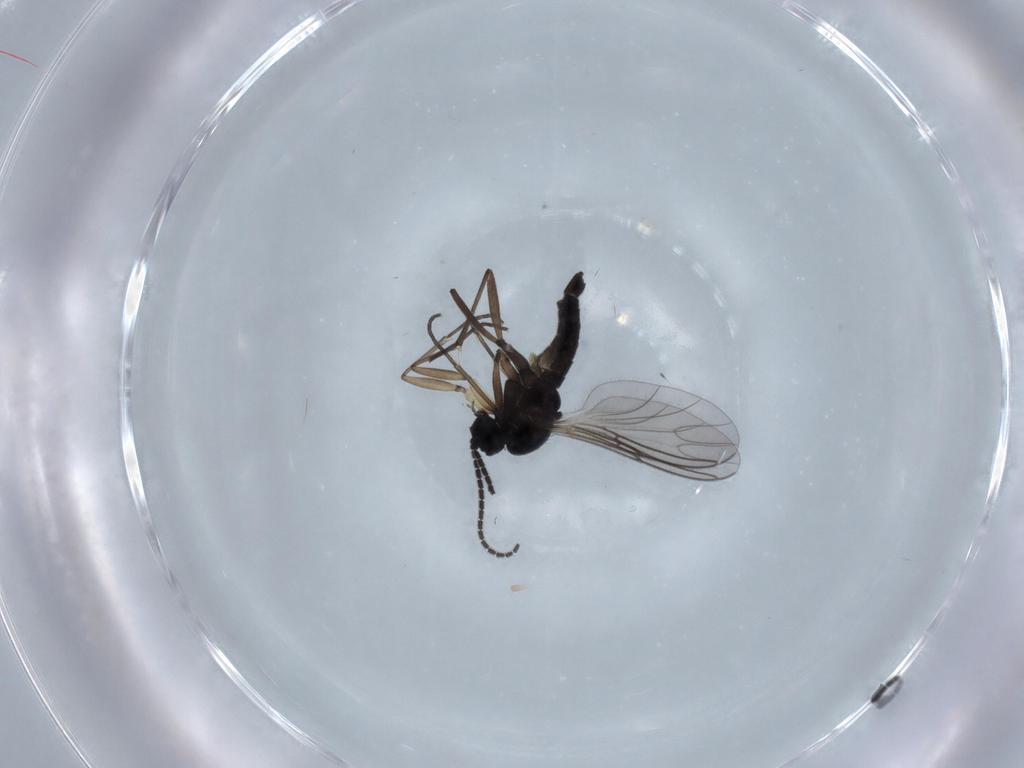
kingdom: Animalia
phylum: Arthropoda
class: Insecta
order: Diptera
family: Sciaridae
